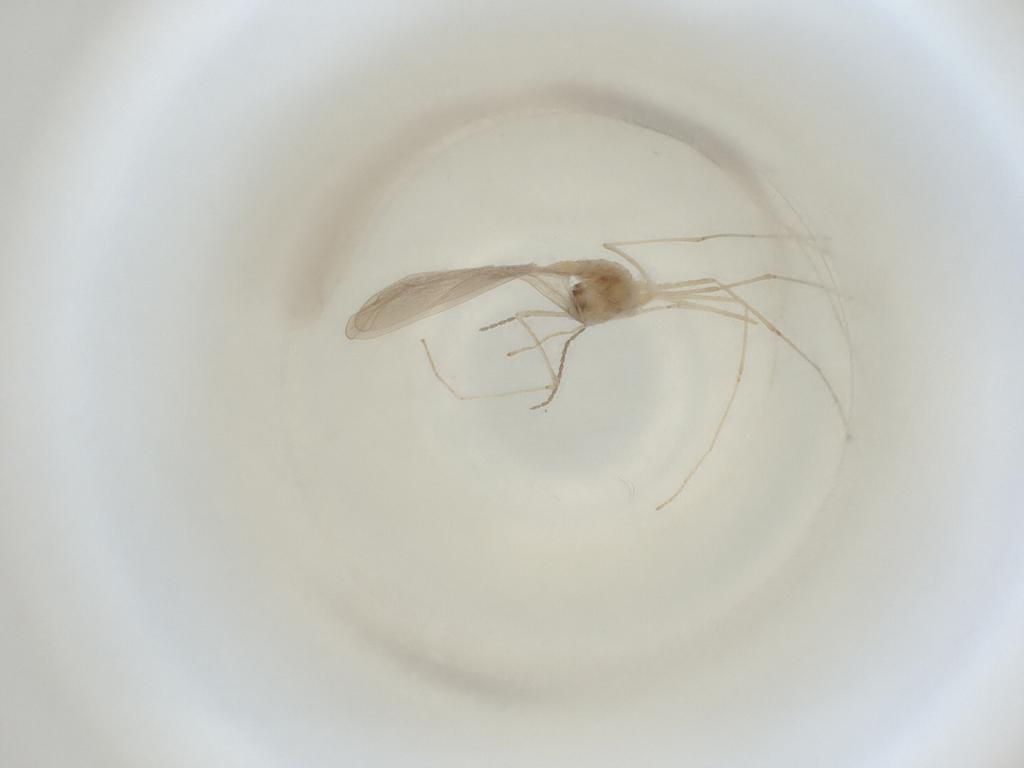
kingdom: Animalia
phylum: Arthropoda
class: Insecta
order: Diptera
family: Cecidomyiidae
